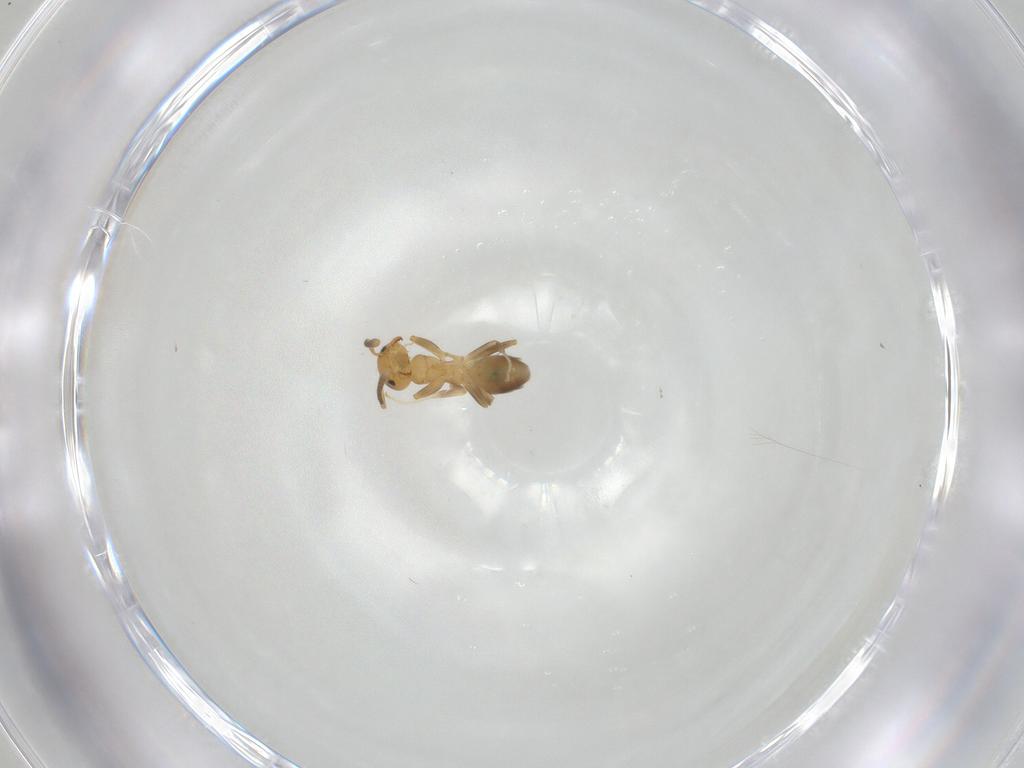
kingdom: Animalia
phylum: Arthropoda
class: Insecta
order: Hymenoptera
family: Formicidae
